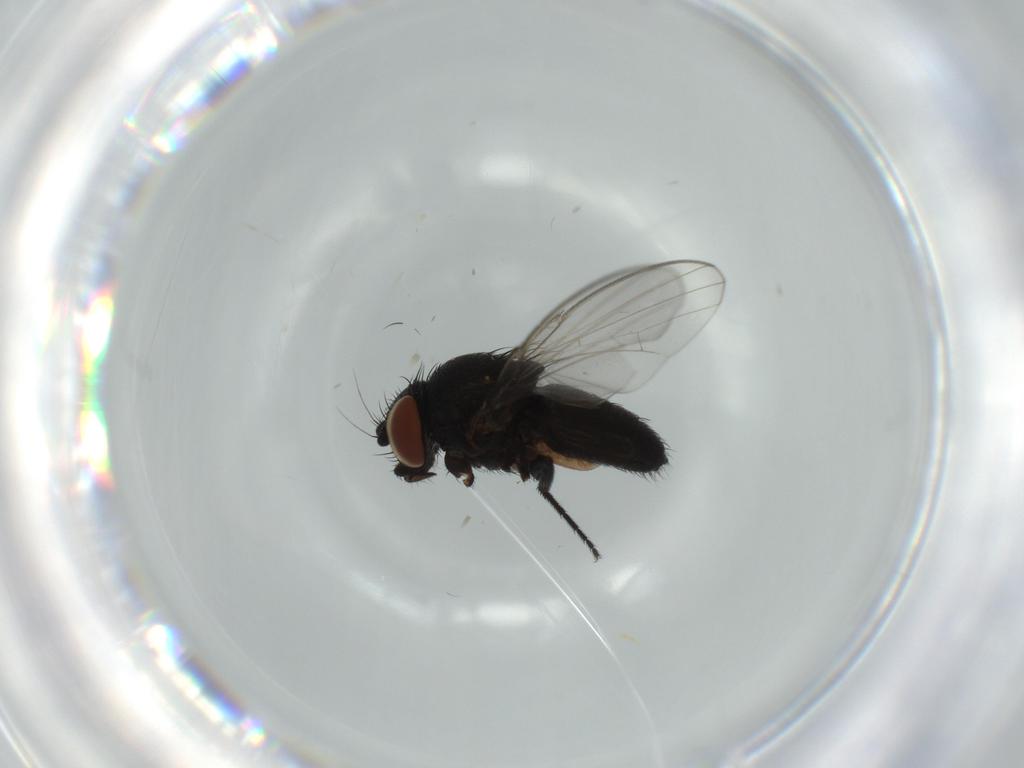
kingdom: Animalia
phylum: Arthropoda
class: Insecta
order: Diptera
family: Milichiidae
